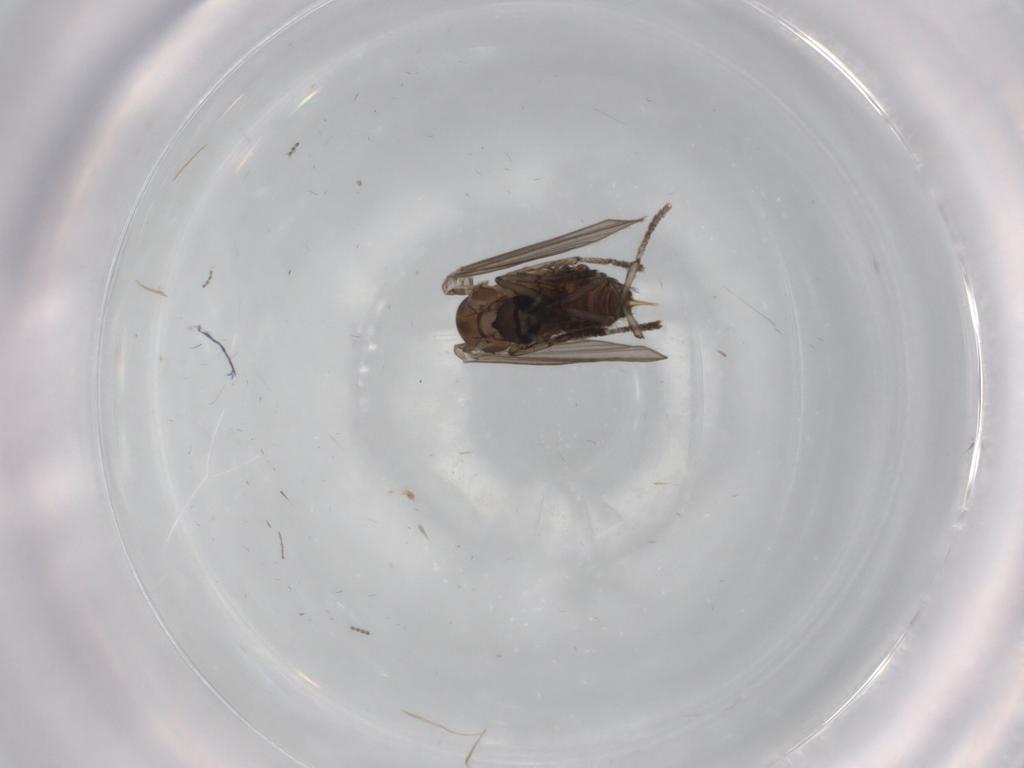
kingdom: Animalia
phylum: Arthropoda
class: Insecta
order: Diptera
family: Psychodidae
